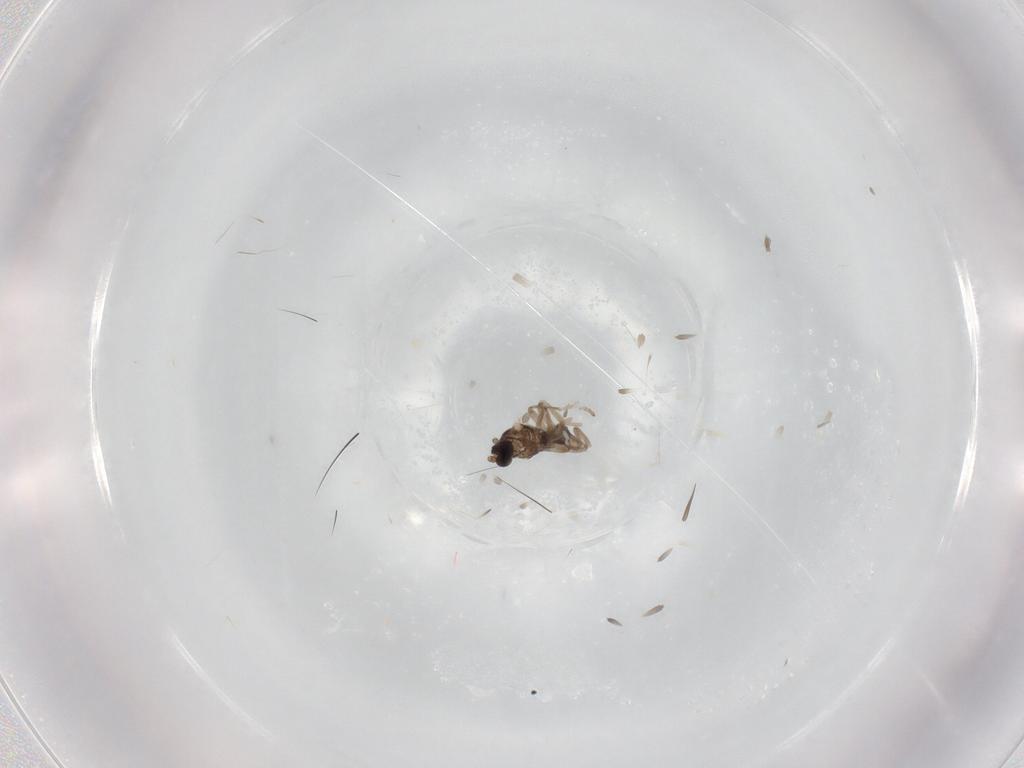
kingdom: Animalia
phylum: Arthropoda
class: Insecta
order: Diptera
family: Cecidomyiidae
